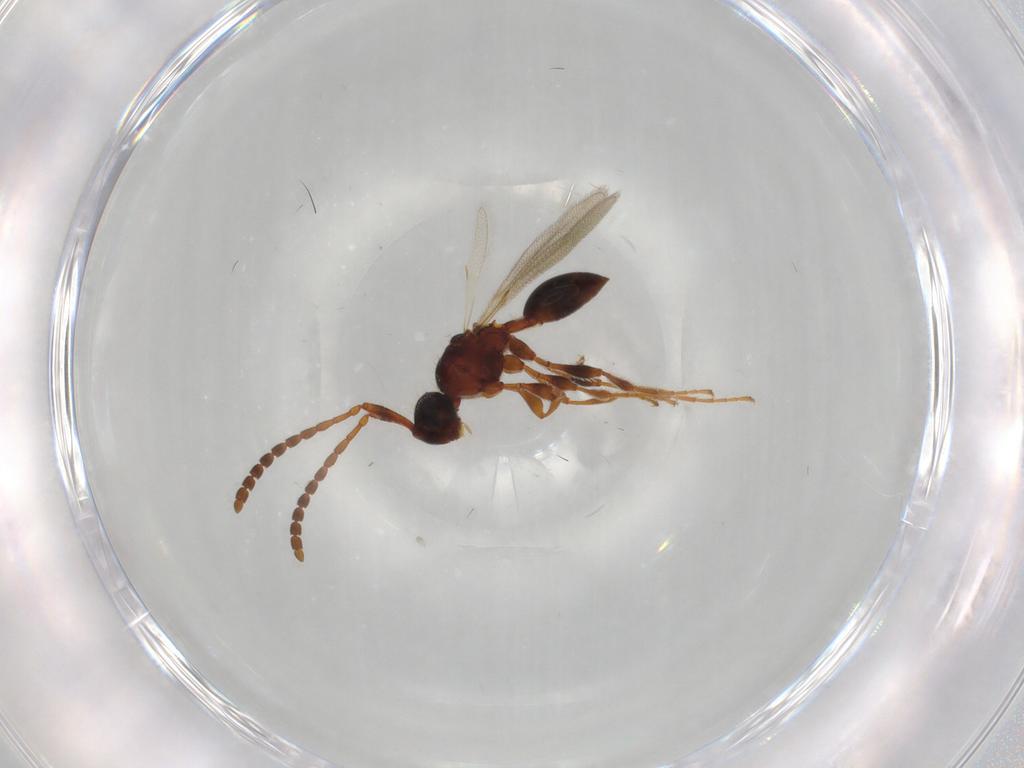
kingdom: Animalia
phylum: Arthropoda
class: Insecta
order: Hymenoptera
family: Diapriidae
